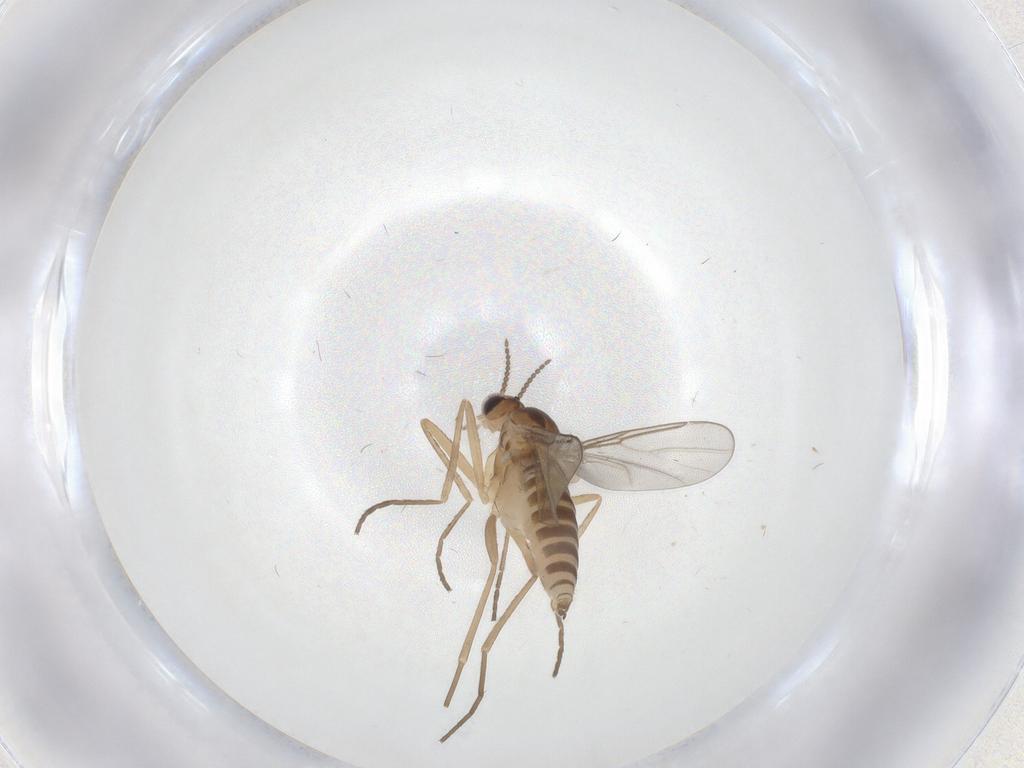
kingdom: Animalia
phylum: Arthropoda
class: Insecta
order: Diptera
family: Cecidomyiidae
